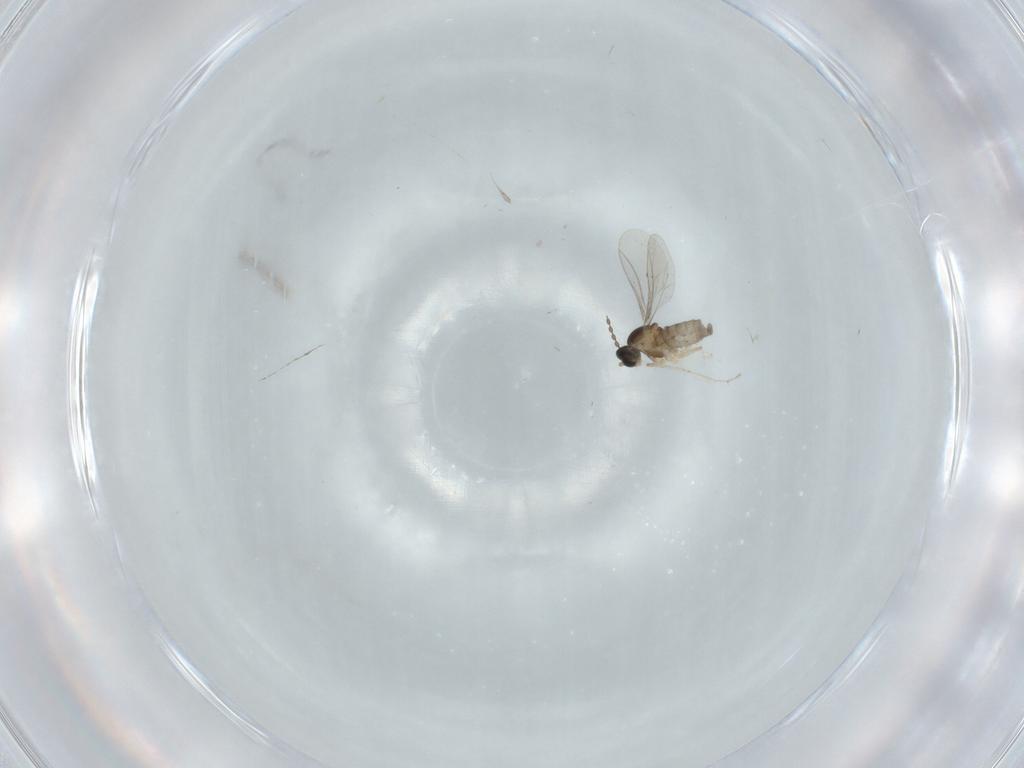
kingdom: Animalia
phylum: Arthropoda
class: Insecta
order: Diptera
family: Cecidomyiidae
